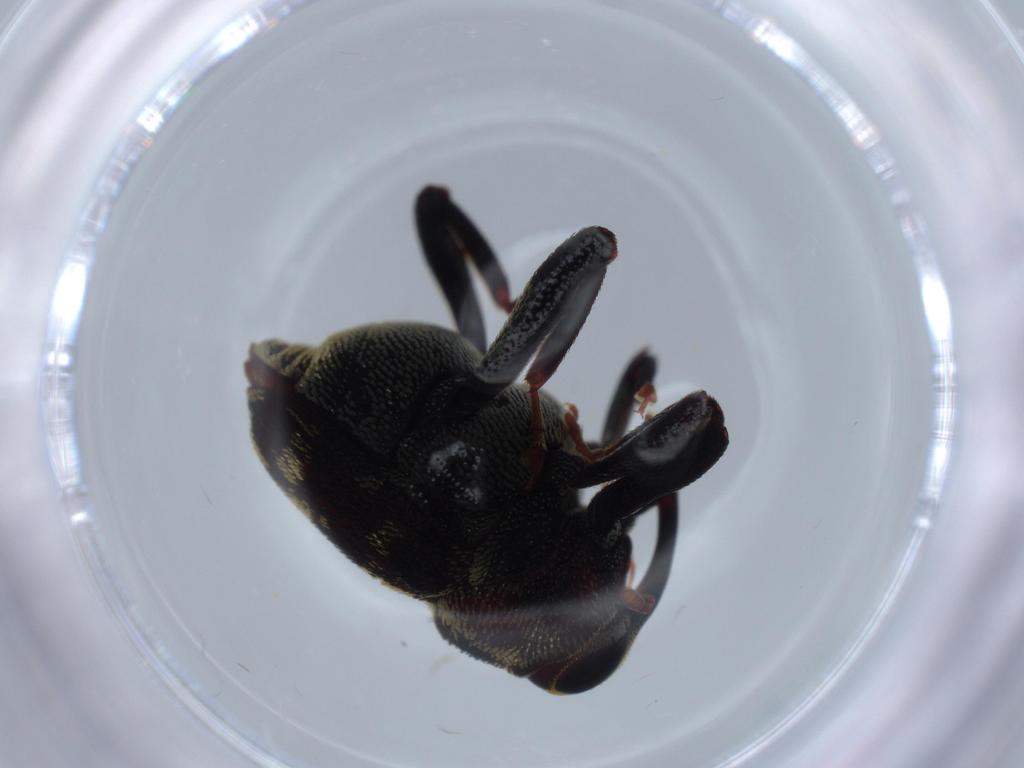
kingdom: Animalia
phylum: Arthropoda
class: Insecta
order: Coleoptera
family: Curculionidae
